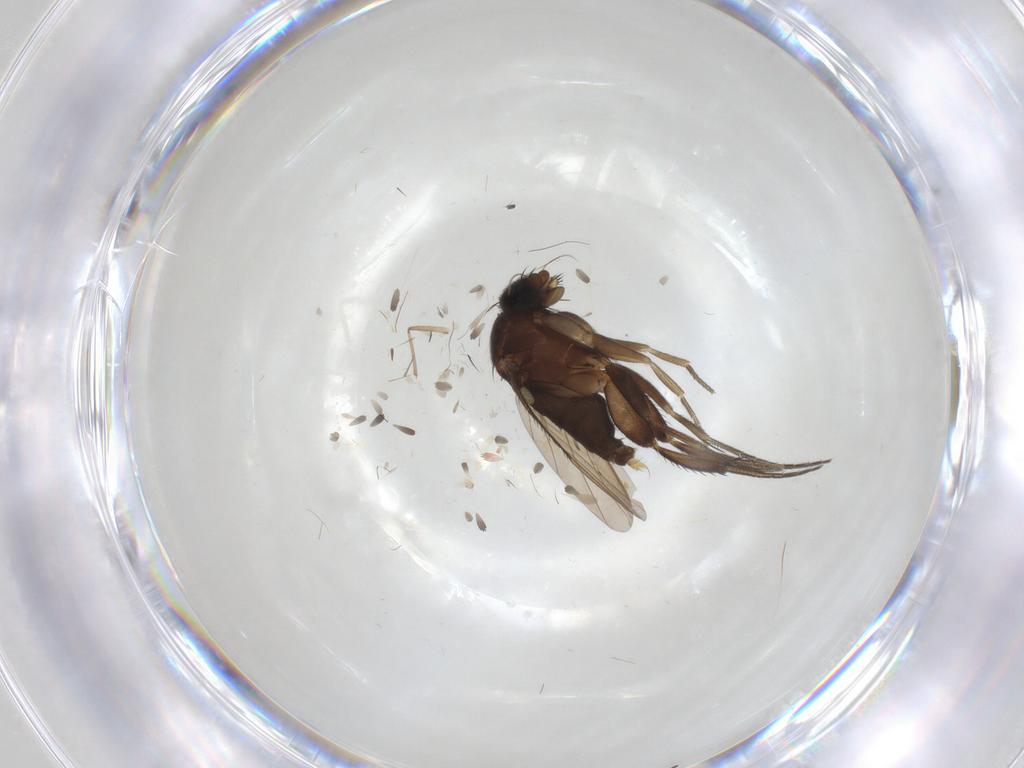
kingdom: Animalia
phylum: Arthropoda
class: Insecta
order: Diptera
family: Phoridae
